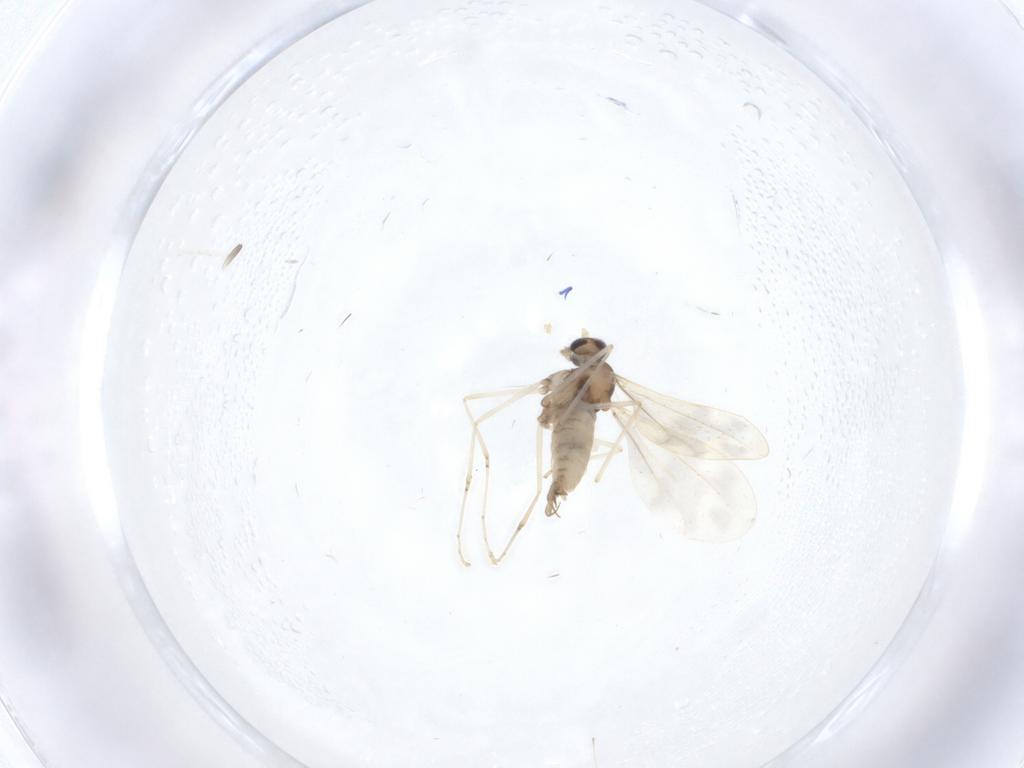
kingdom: Animalia
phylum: Arthropoda
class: Insecta
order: Diptera
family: Cecidomyiidae
